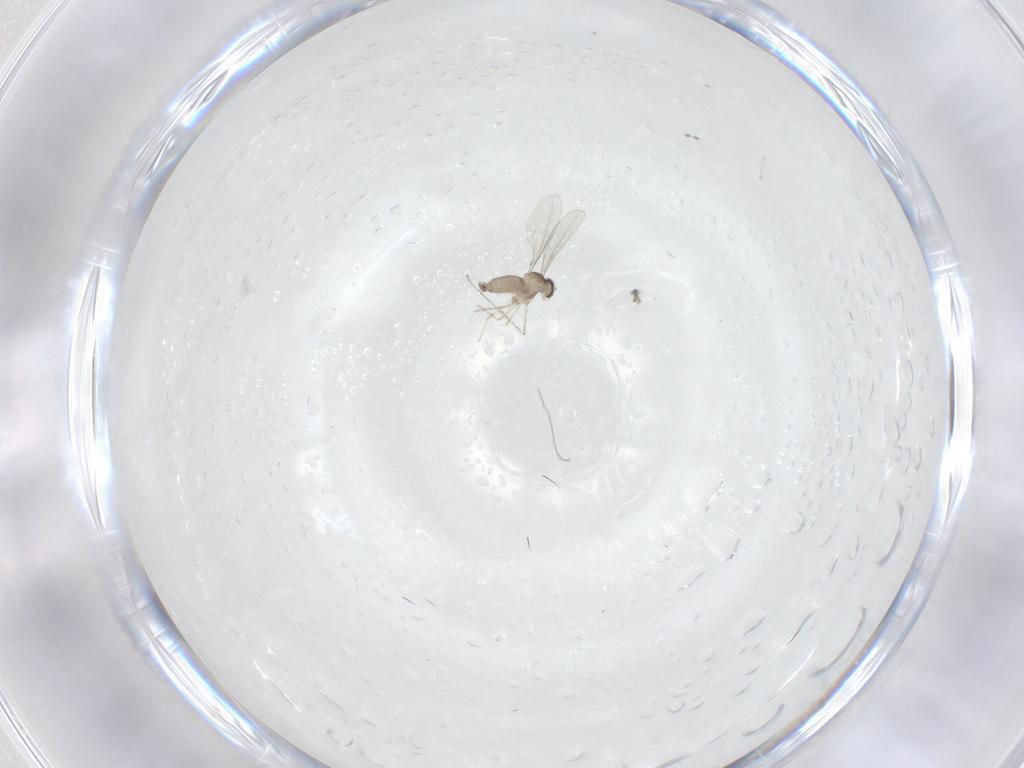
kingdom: Animalia
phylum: Arthropoda
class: Insecta
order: Diptera
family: Cecidomyiidae
